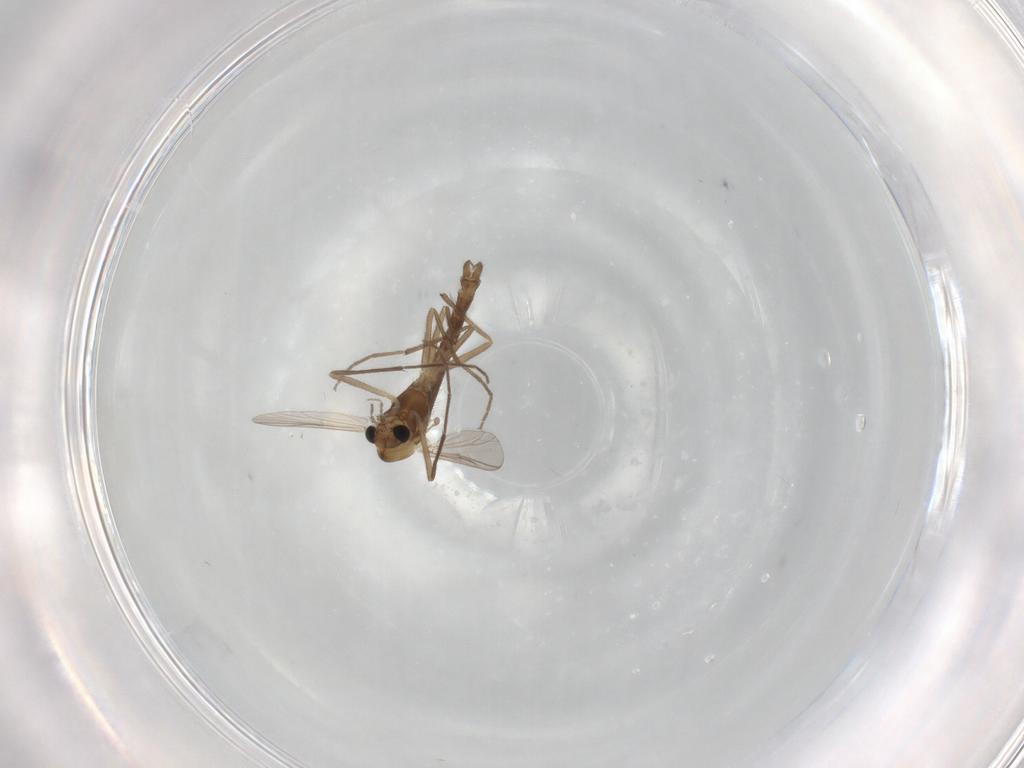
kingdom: Animalia
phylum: Arthropoda
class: Insecta
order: Diptera
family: Chironomidae
